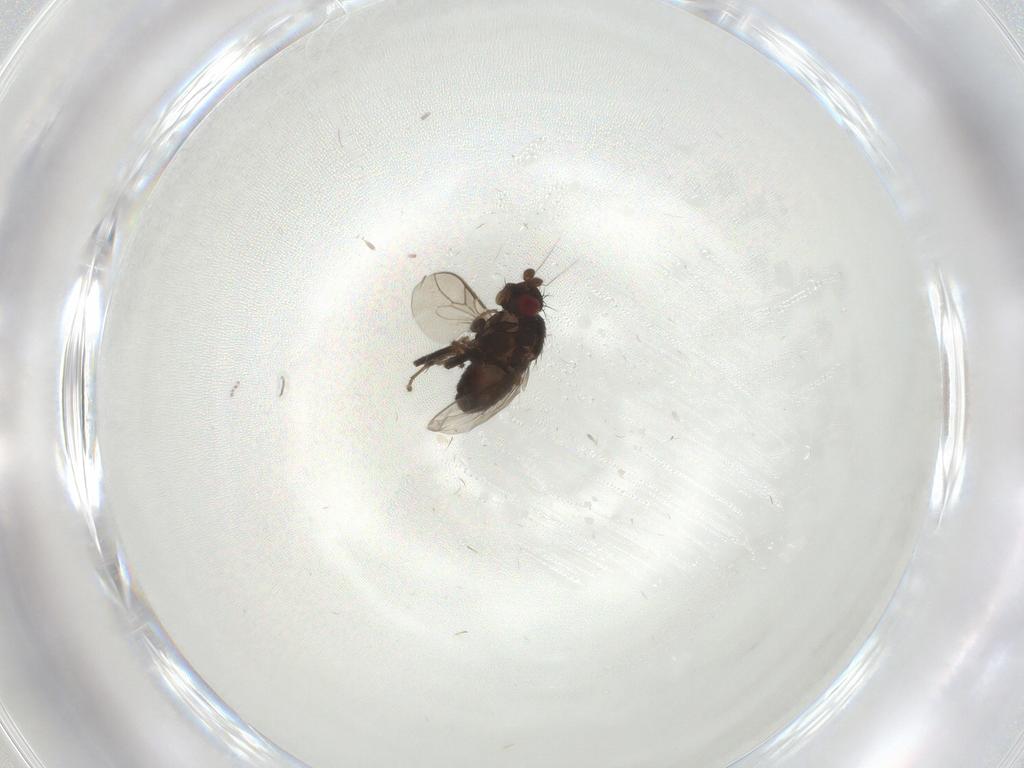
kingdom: Animalia
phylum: Arthropoda
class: Insecta
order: Diptera
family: Sphaeroceridae
